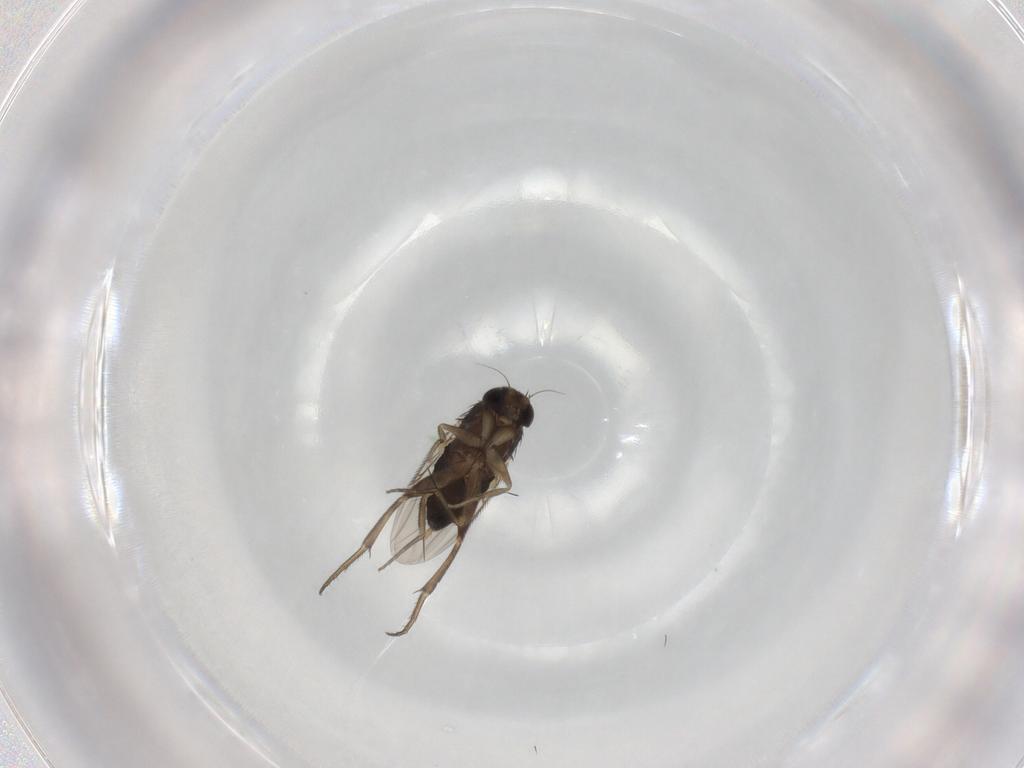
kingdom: Animalia
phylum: Arthropoda
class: Insecta
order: Diptera
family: Phoridae
